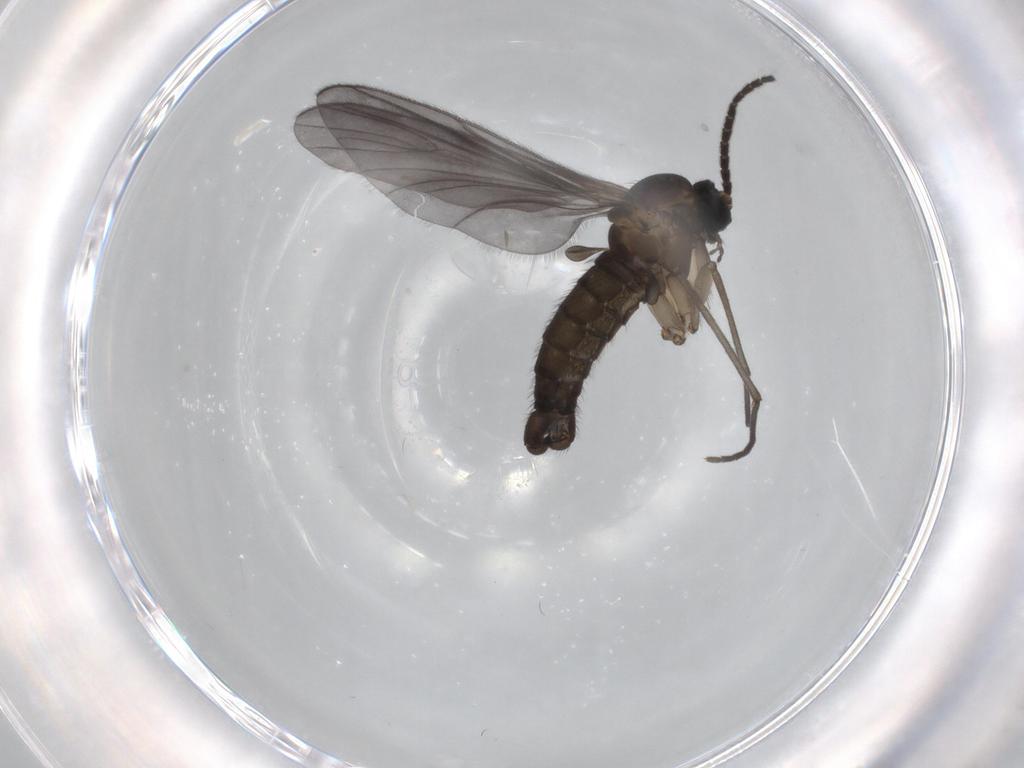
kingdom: Animalia
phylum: Arthropoda
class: Insecta
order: Diptera
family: Sciaridae
